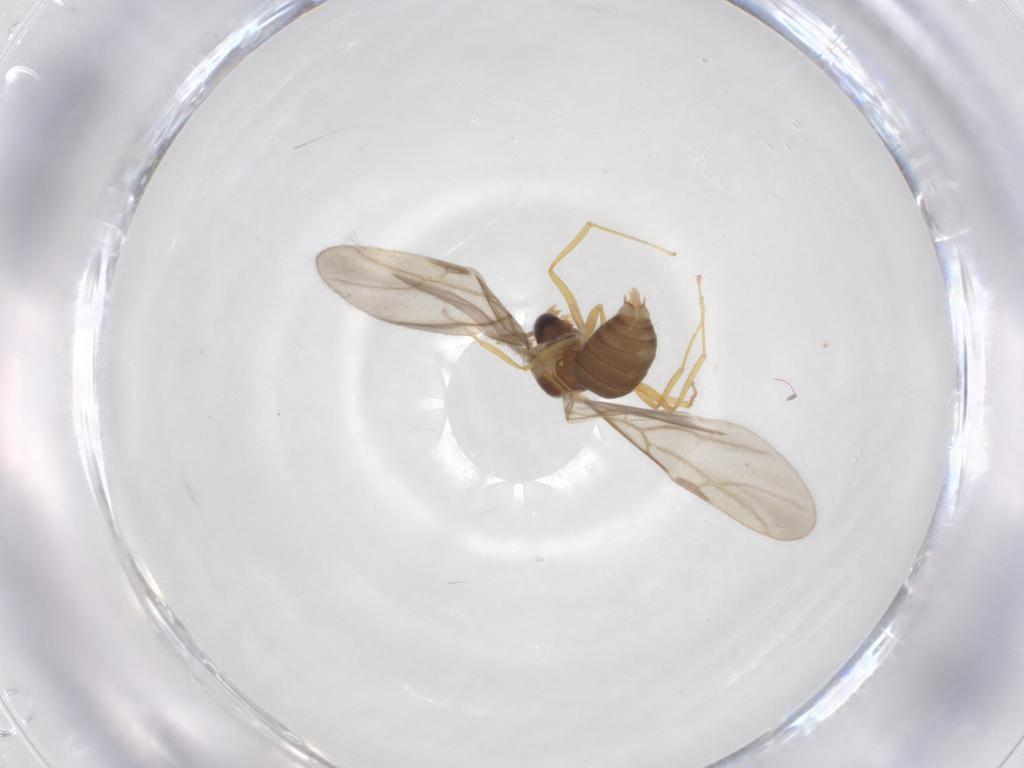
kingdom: Animalia
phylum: Arthropoda
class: Insecta
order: Hymenoptera
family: Formicidae
